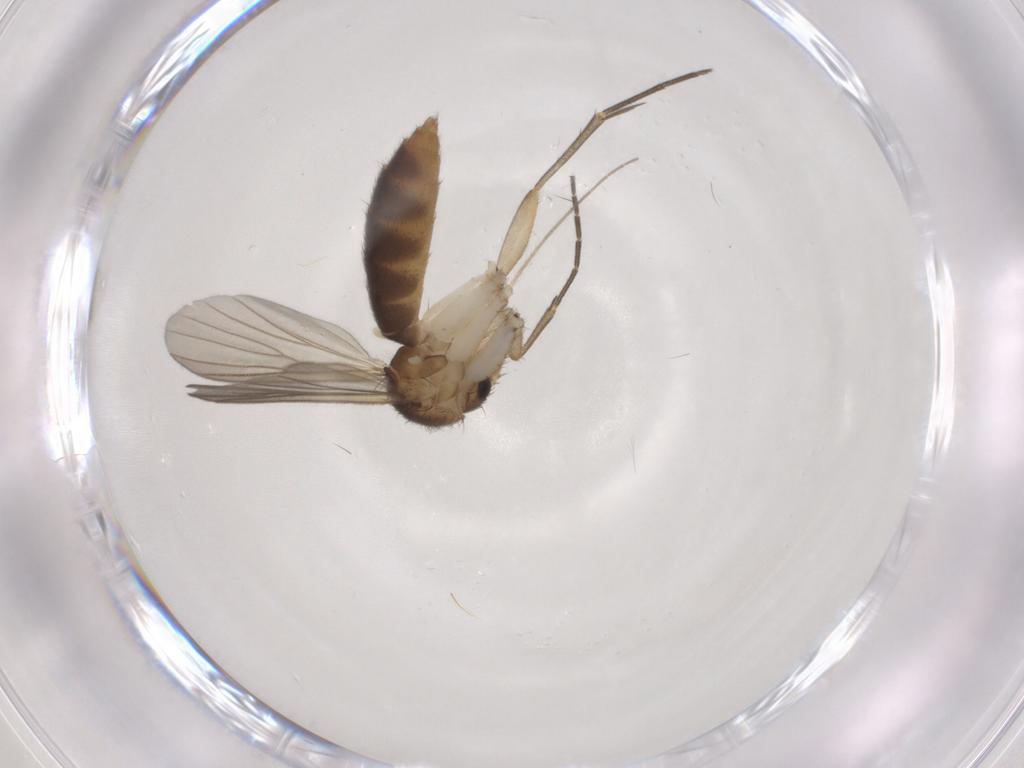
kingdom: Animalia
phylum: Arthropoda
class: Insecta
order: Diptera
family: Mycetophilidae
